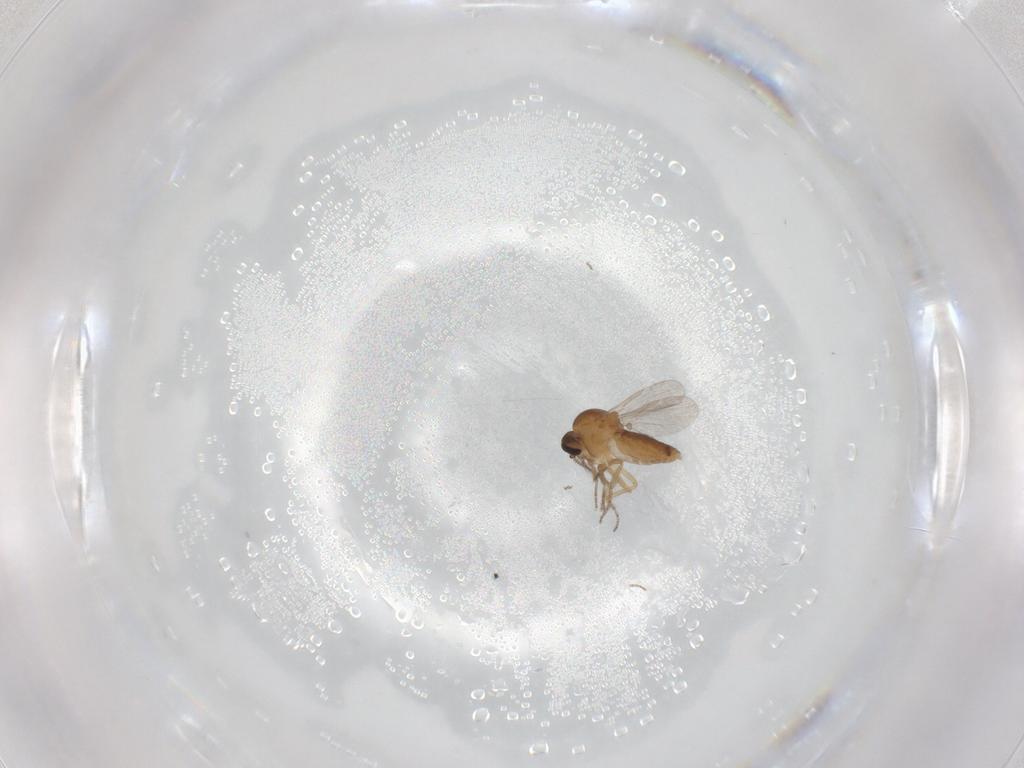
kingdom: Animalia
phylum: Arthropoda
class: Insecta
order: Diptera
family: Ceratopogonidae
